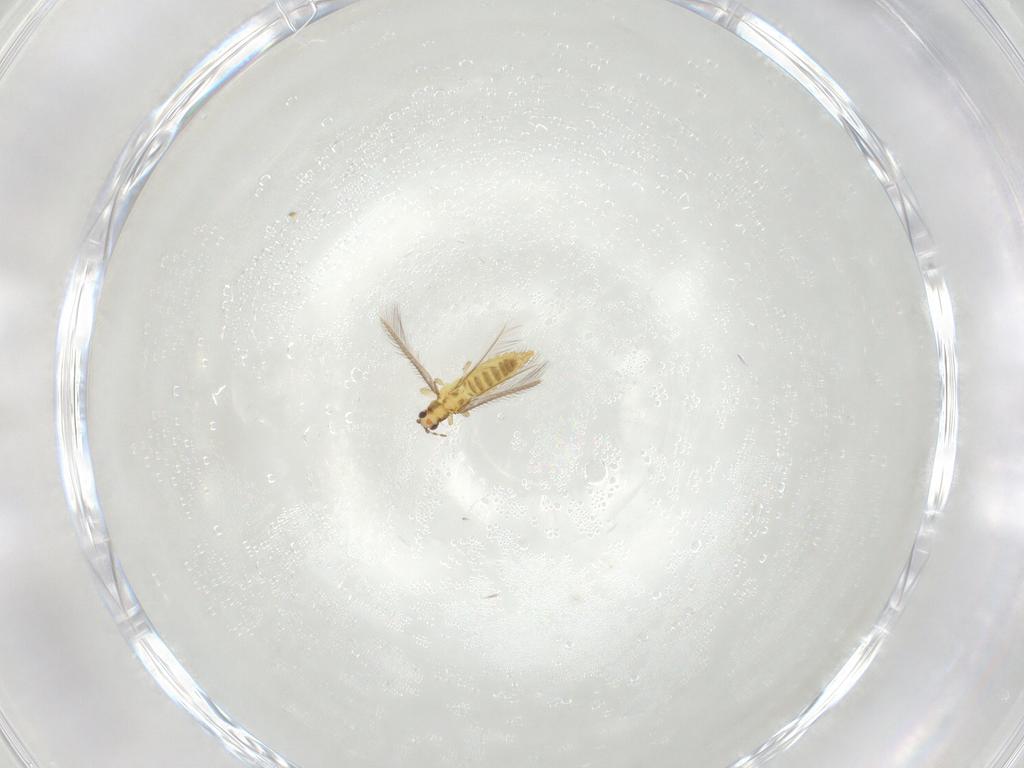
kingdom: Animalia
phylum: Arthropoda
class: Insecta
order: Thysanoptera
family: Thripidae
